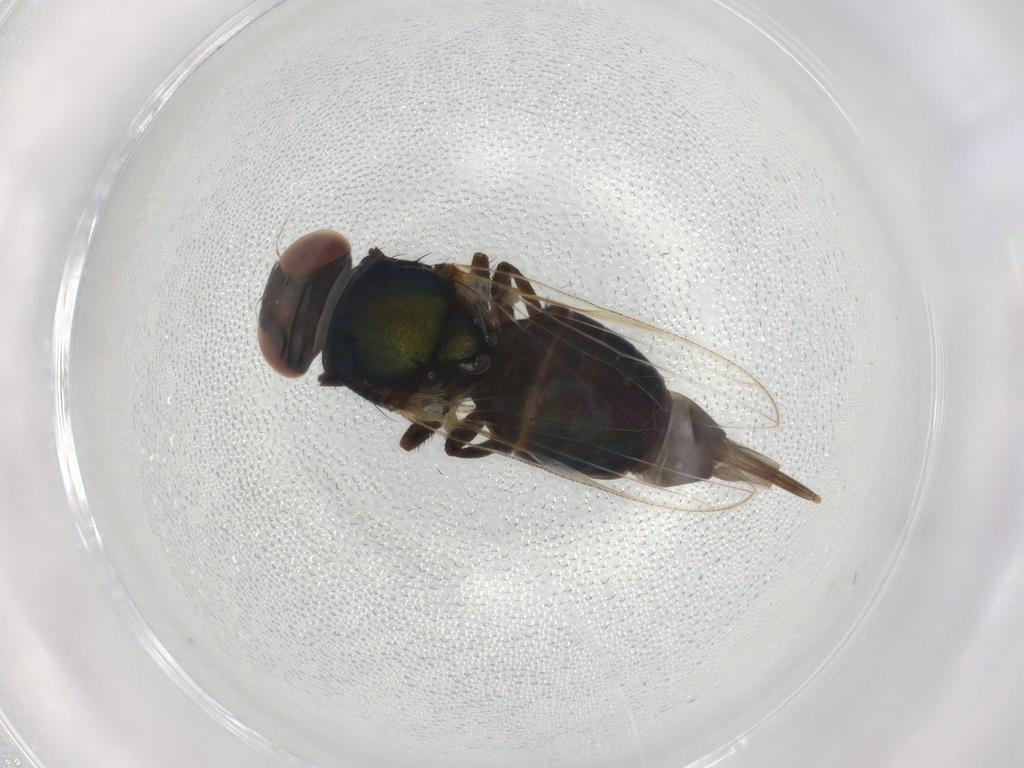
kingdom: Animalia
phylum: Arthropoda
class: Insecta
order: Diptera
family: Ulidiidae
